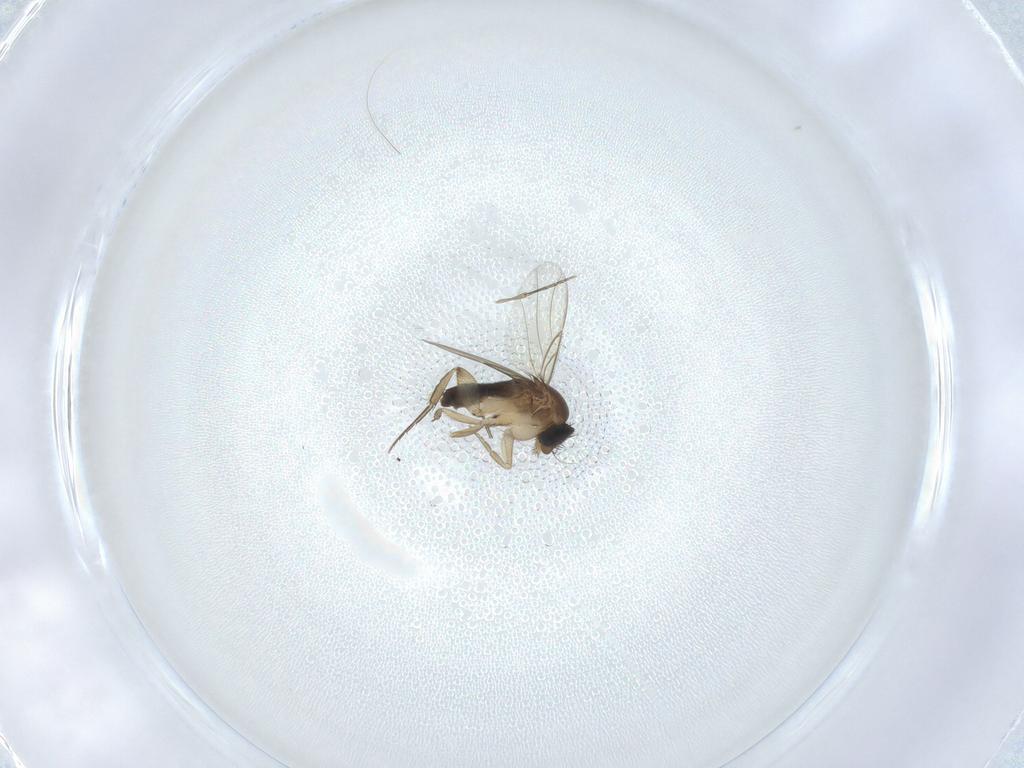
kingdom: Animalia
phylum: Arthropoda
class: Insecta
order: Diptera
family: Phoridae
